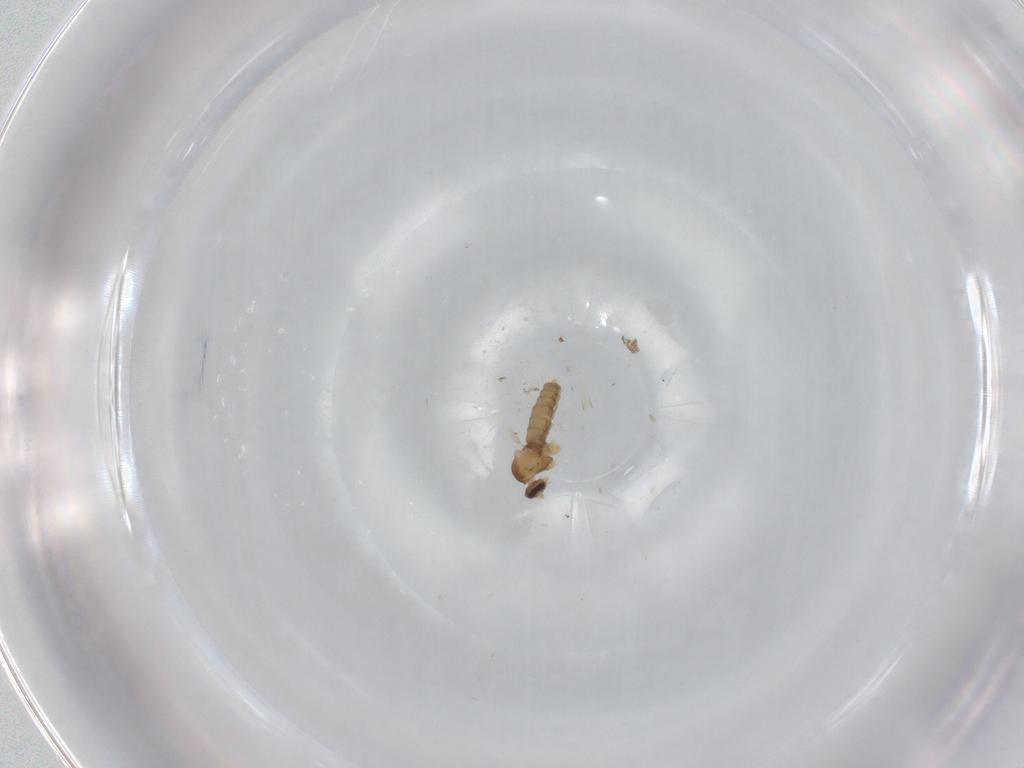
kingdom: Animalia
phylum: Arthropoda
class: Insecta
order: Diptera
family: Cecidomyiidae
